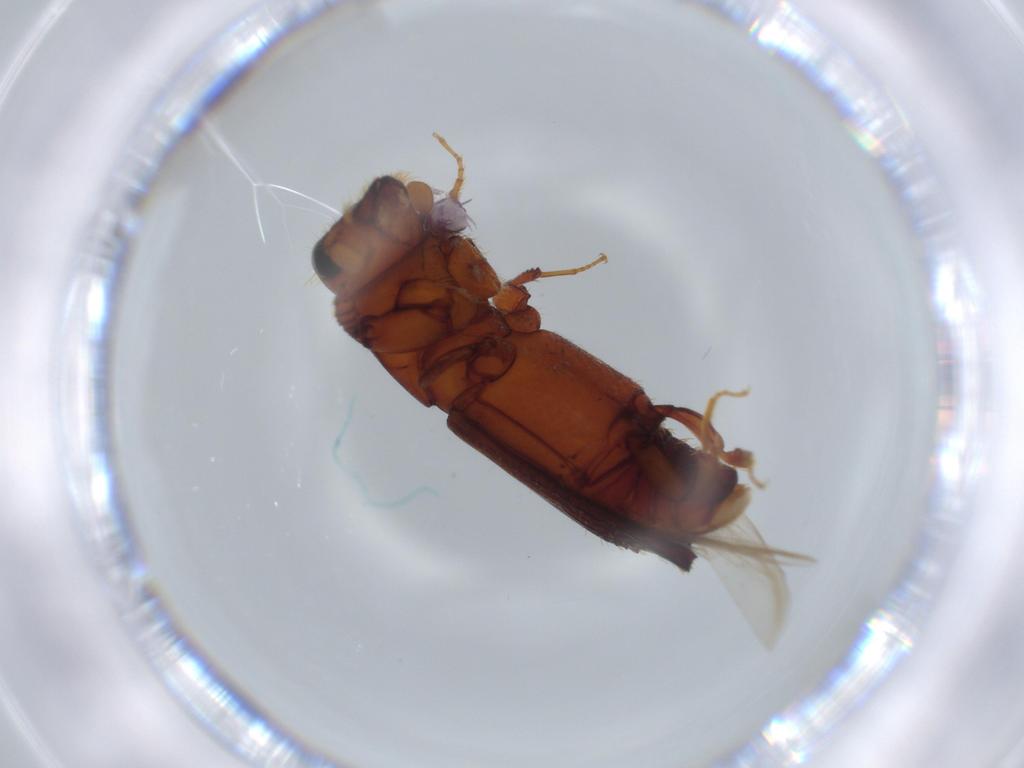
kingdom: Animalia
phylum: Arthropoda
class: Insecta
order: Coleoptera
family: Curculionidae
